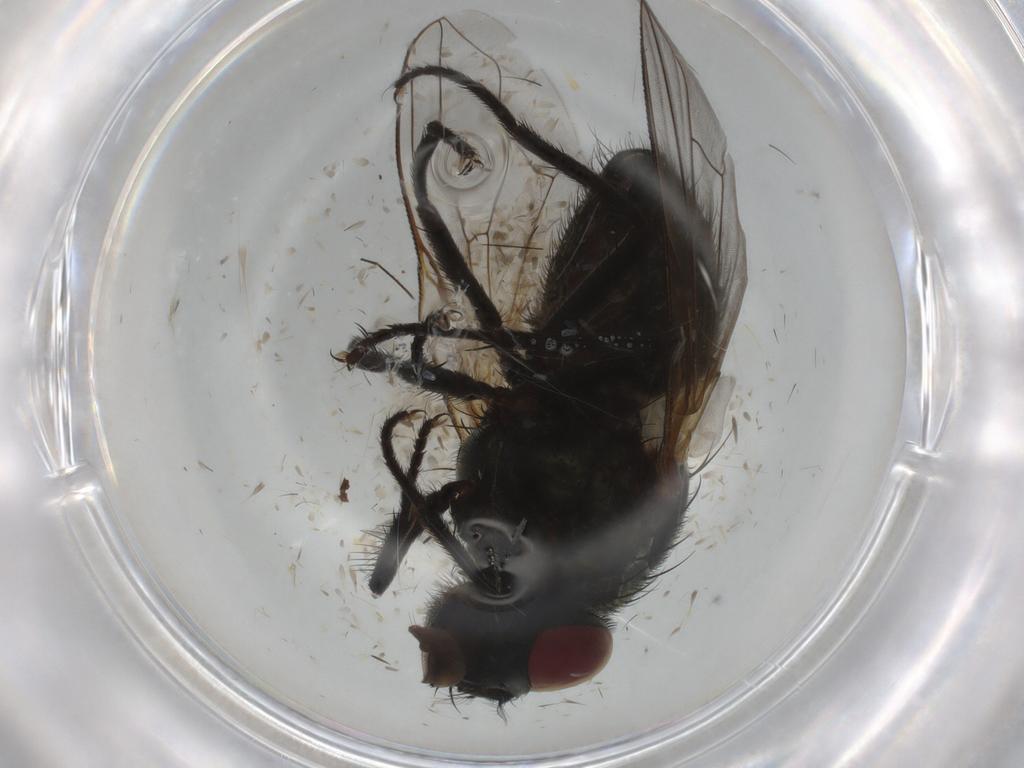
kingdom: Animalia
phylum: Arthropoda
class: Insecta
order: Diptera
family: Muscidae
